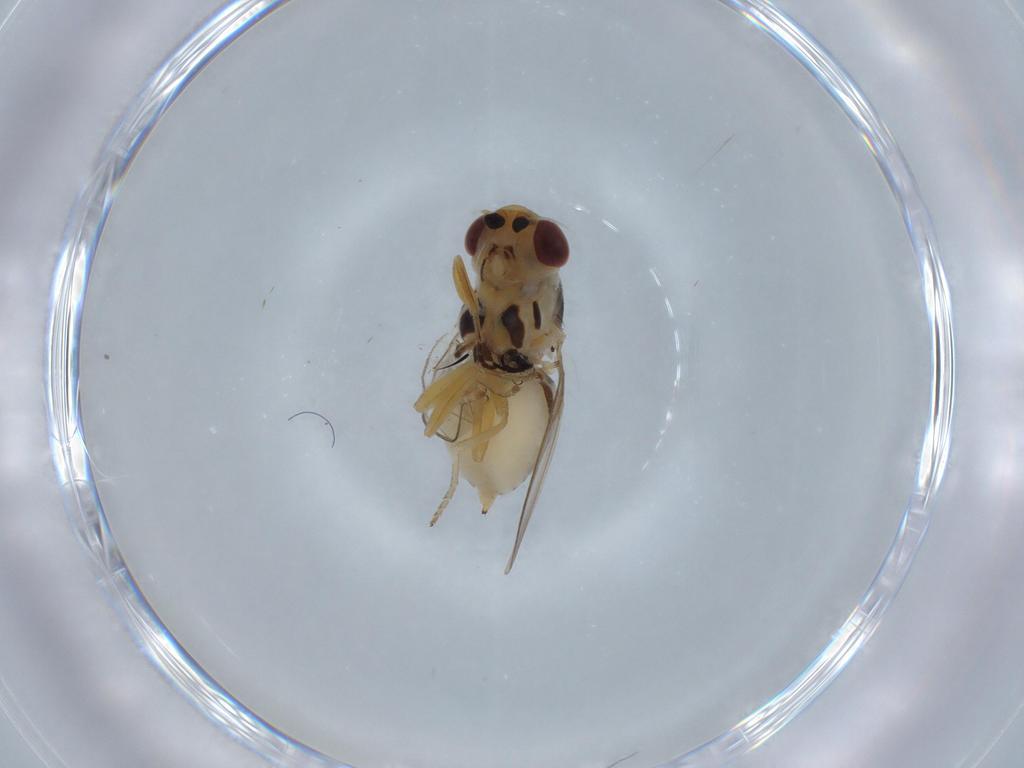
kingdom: Animalia
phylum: Arthropoda
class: Insecta
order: Diptera
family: Chloropidae
